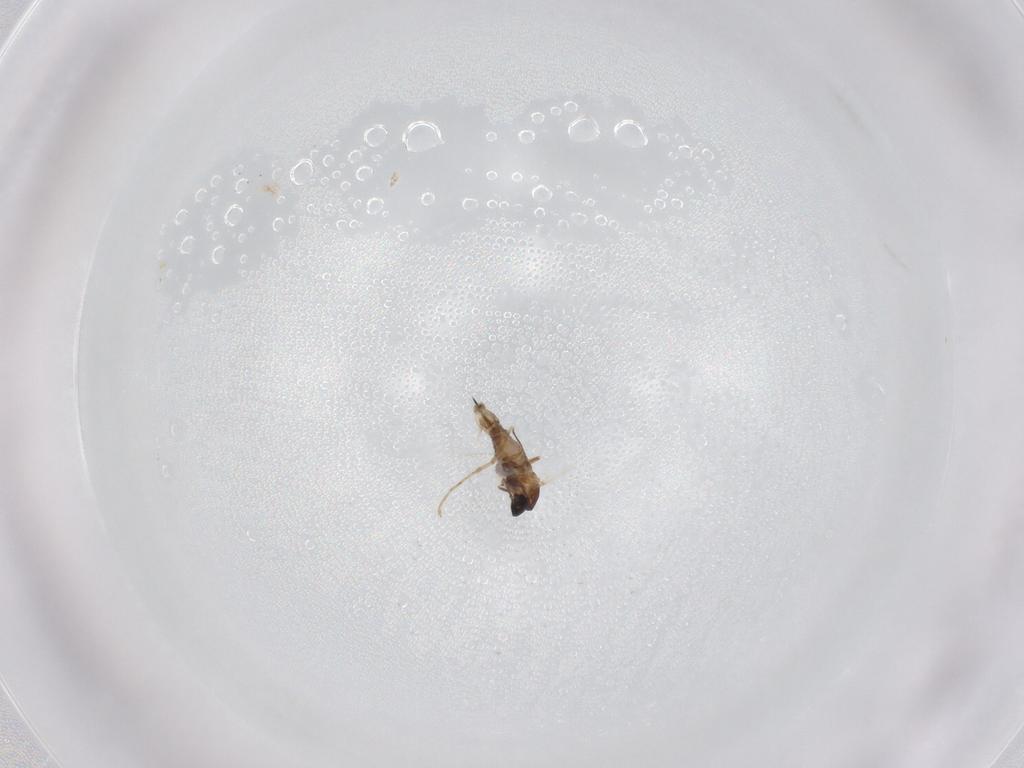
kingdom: Animalia
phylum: Arthropoda
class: Insecta
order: Diptera
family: Cecidomyiidae
